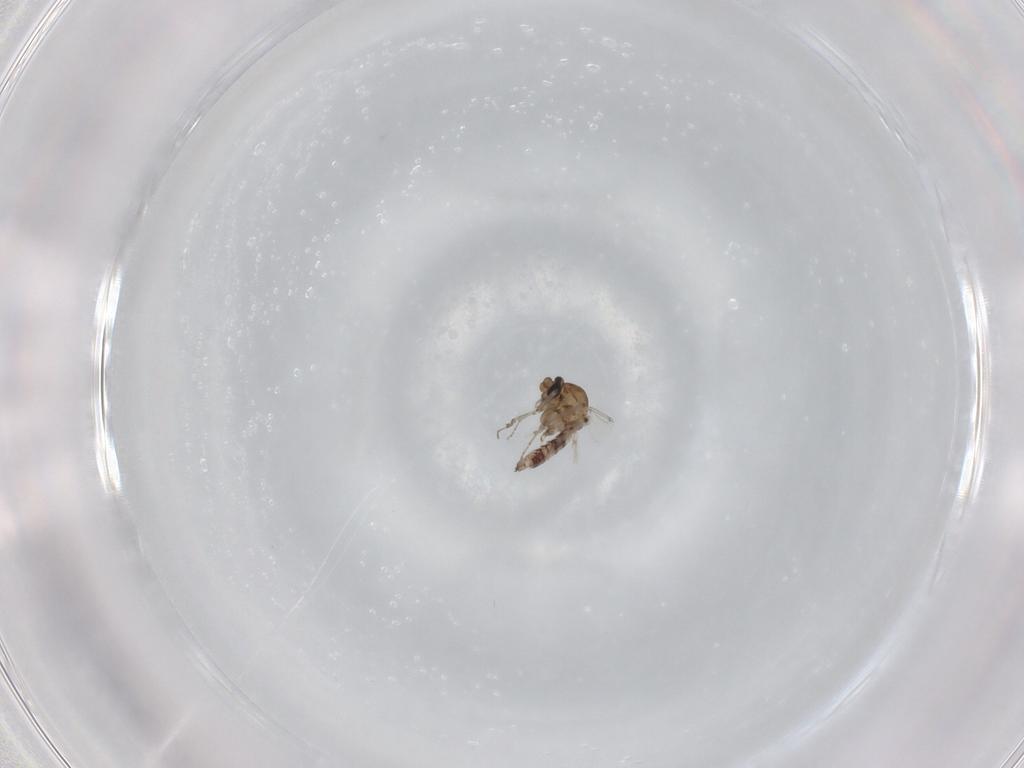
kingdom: Animalia
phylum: Arthropoda
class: Insecta
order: Diptera
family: Ceratopogonidae
